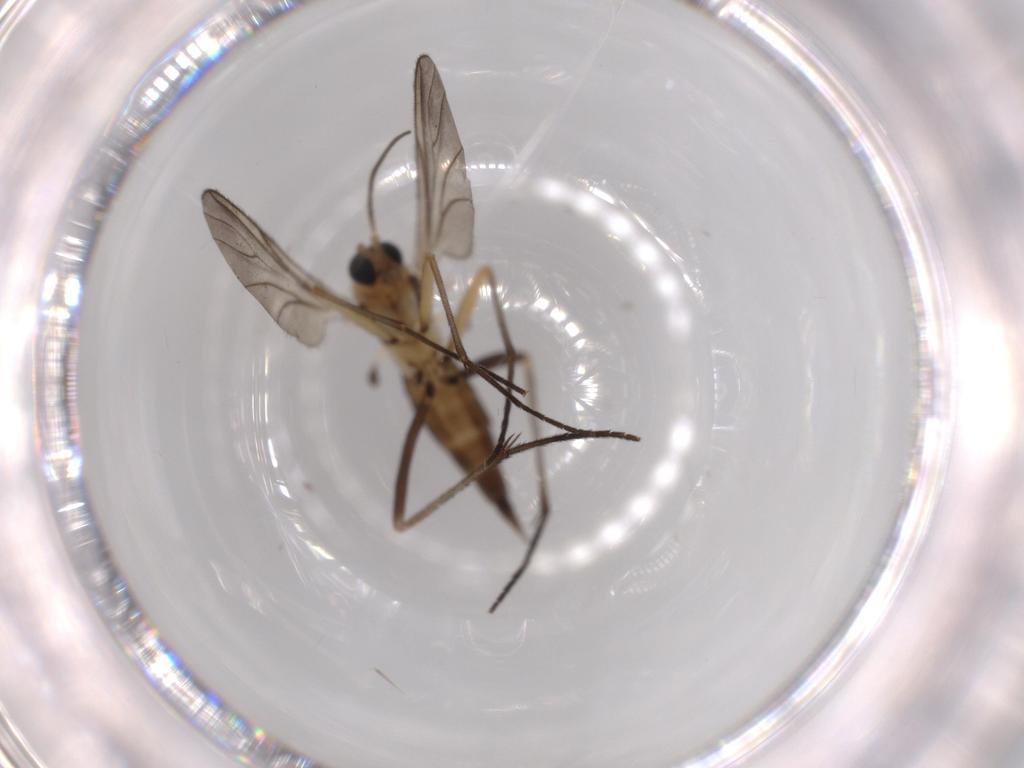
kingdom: Animalia
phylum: Arthropoda
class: Insecta
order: Diptera
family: Sciaridae
